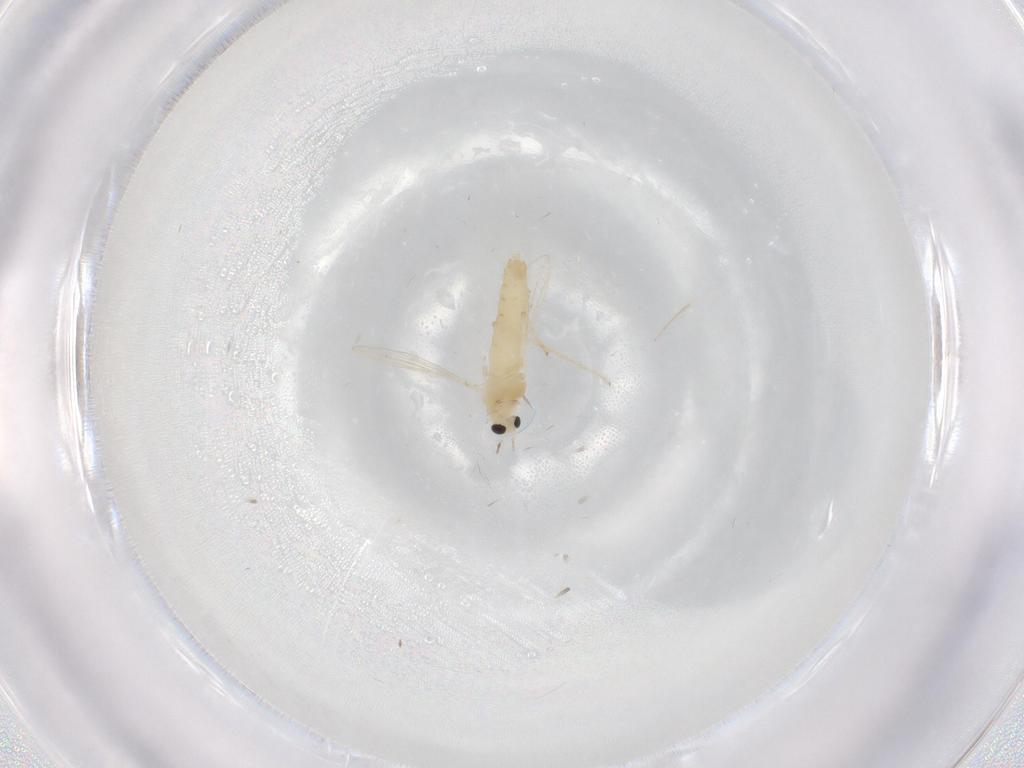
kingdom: Animalia
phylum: Arthropoda
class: Insecta
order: Diptera
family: Chironomidae
